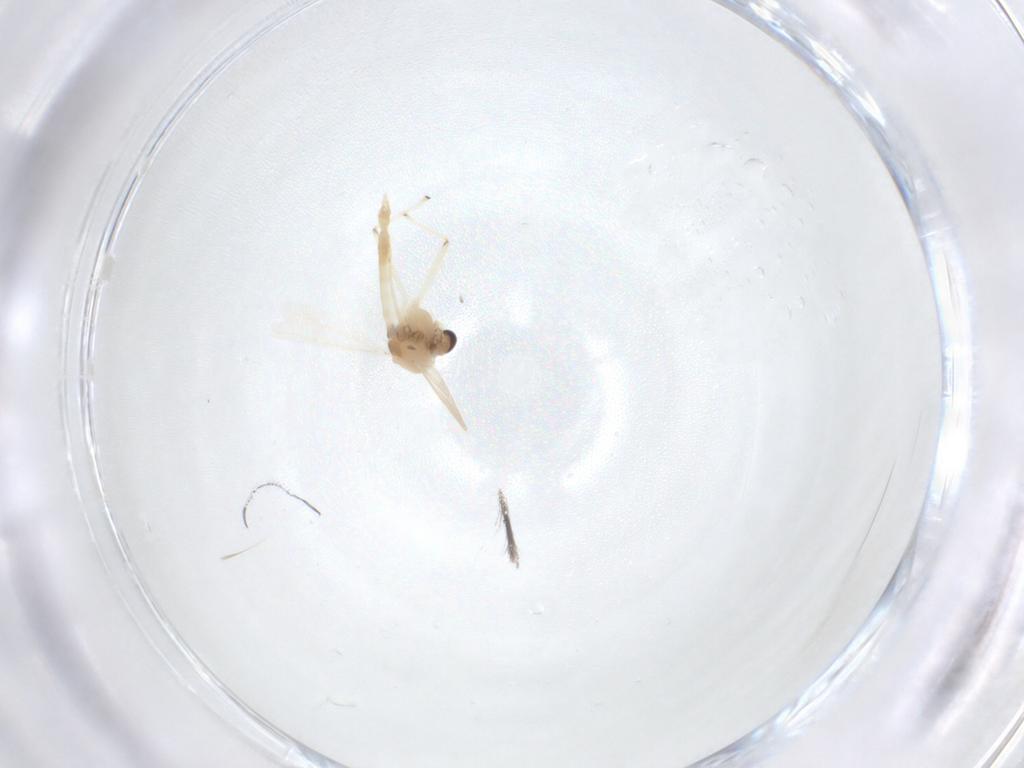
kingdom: Animalia
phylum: Arthropoda
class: Insecta
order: Diptera
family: Chironomidae
